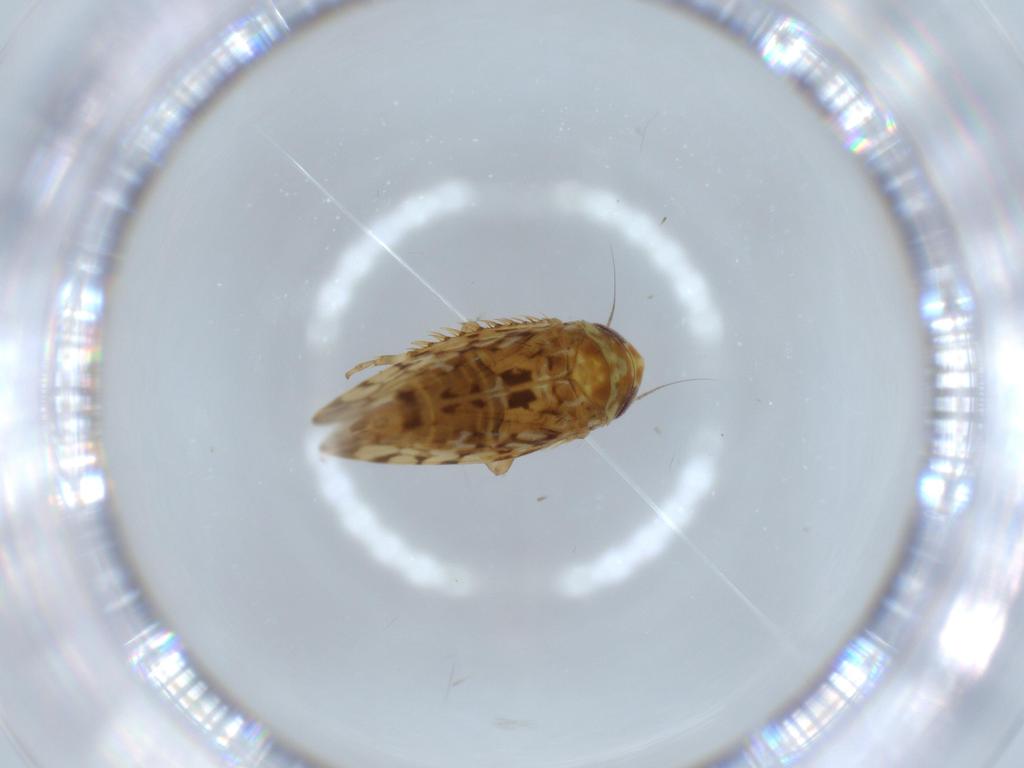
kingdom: Animalia
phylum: Arthropoda
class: Insecta
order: Hemiptera
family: Cicadellidae
